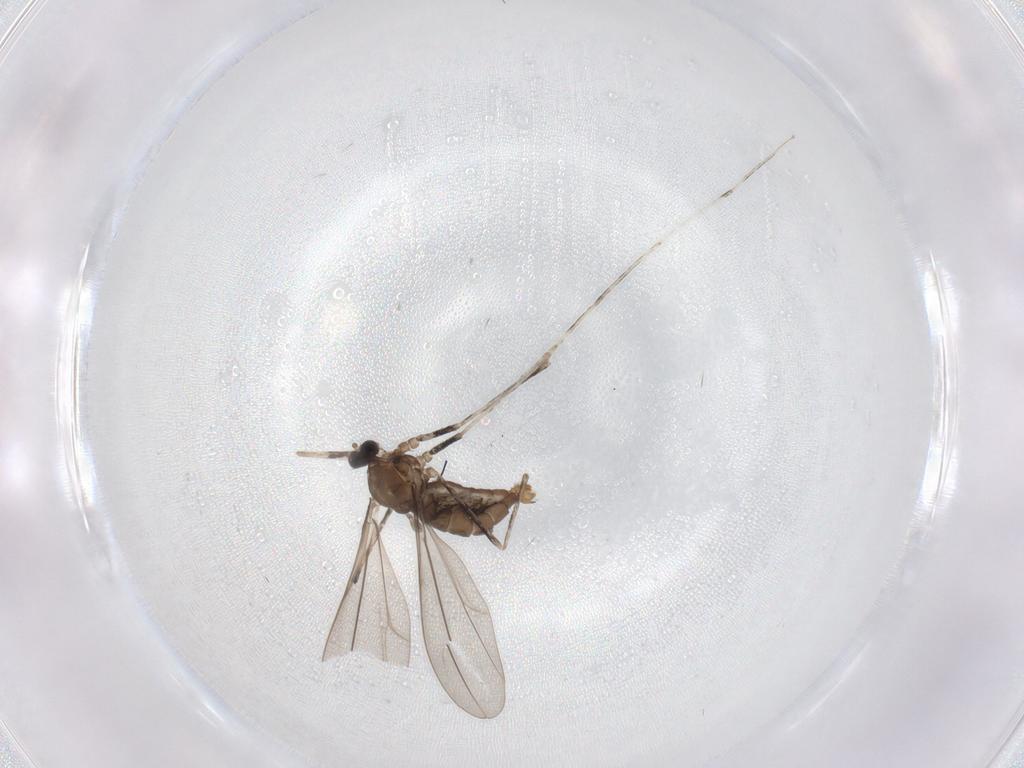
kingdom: Animalia
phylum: Arthropoda
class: Insecta
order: Diptera
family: Cecidomyiidae
